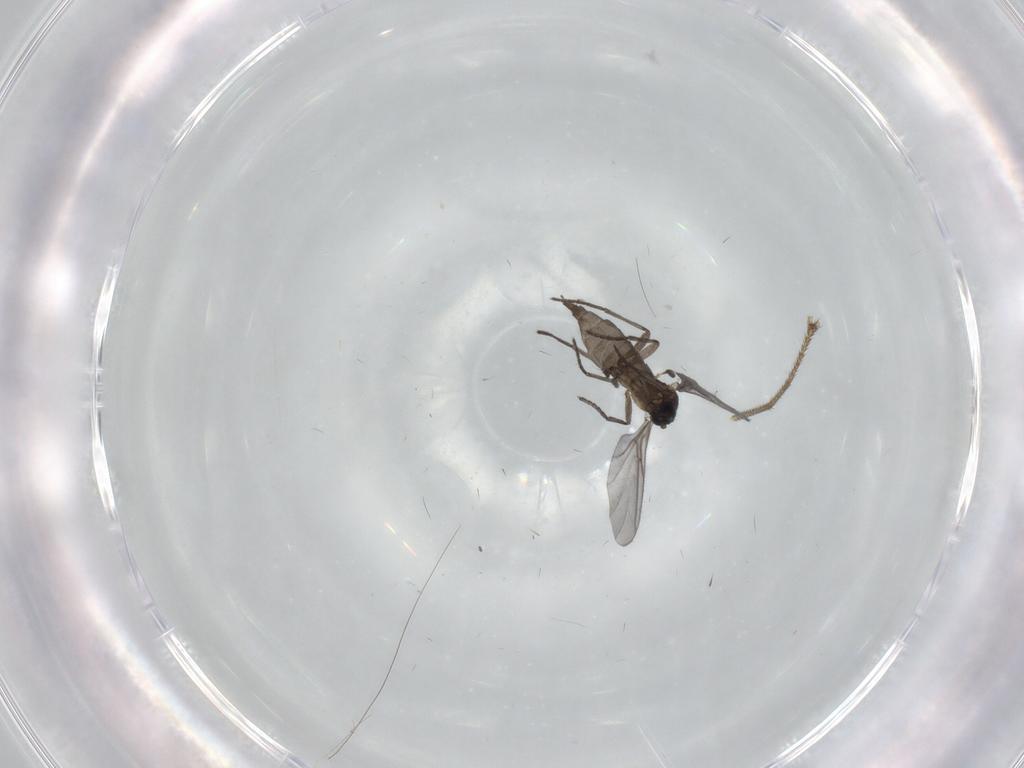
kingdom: Animalia
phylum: Arthropoda
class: Insecta
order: Diptera
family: Sciaridae
